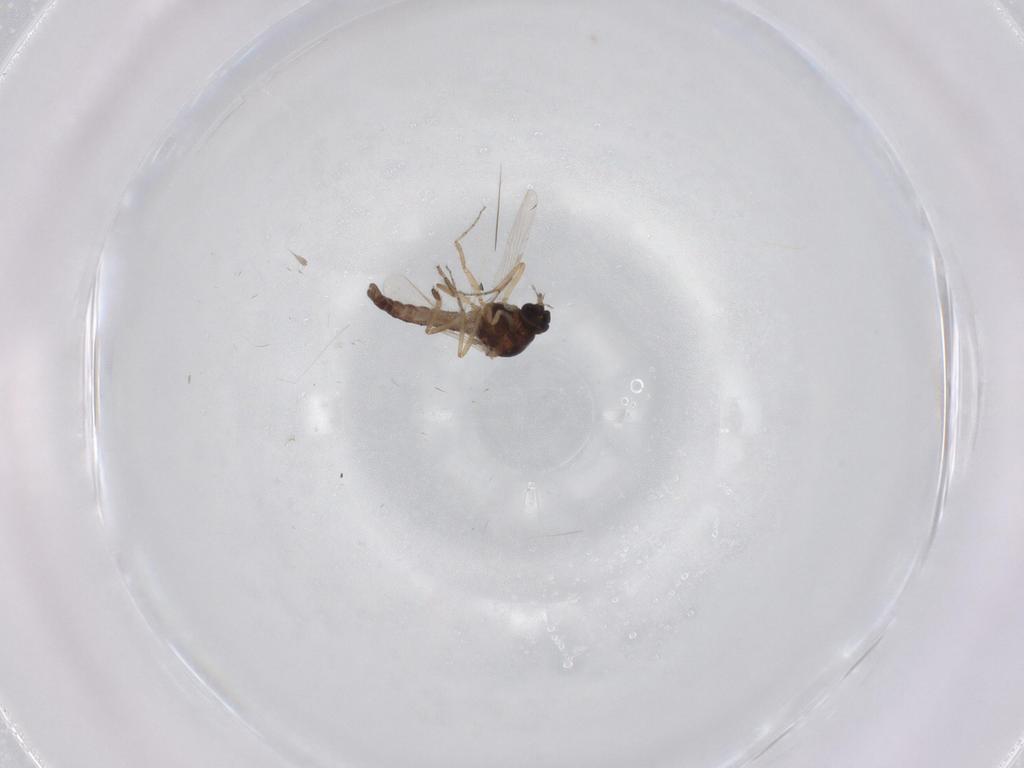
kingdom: Animalia
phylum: Arthropoda
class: Insecta
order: Diptera
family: Ceratopogonidae
